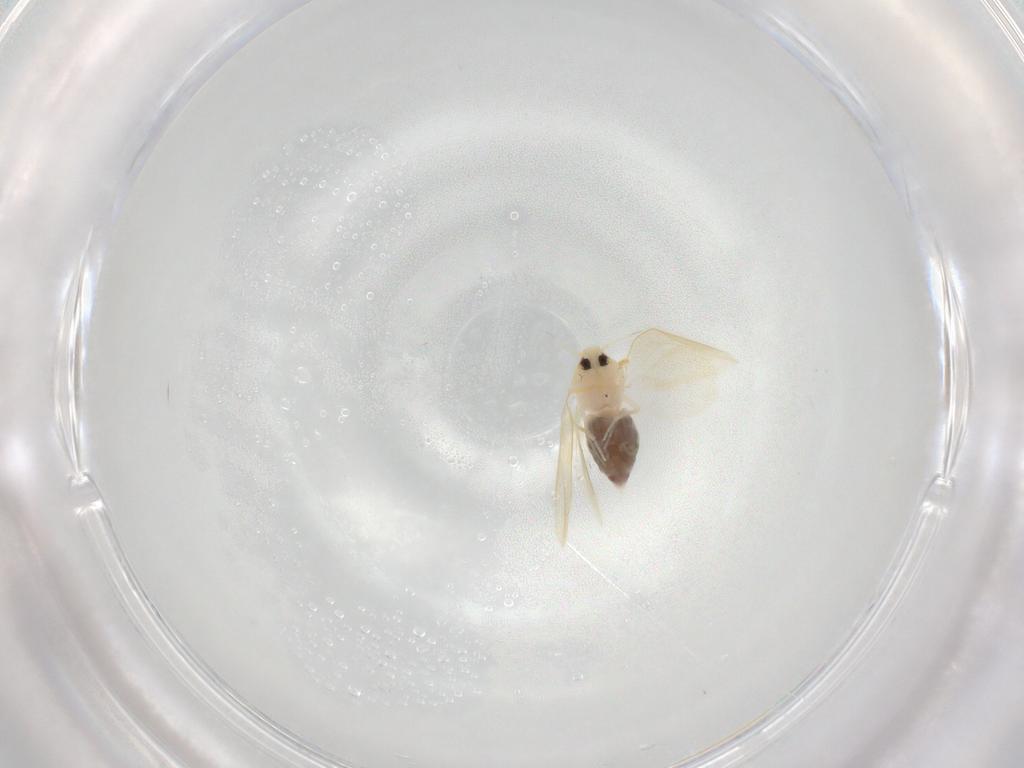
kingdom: Animalia
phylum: Arthropoda
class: Insecta
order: Hemiptera
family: Aleyrodidae
